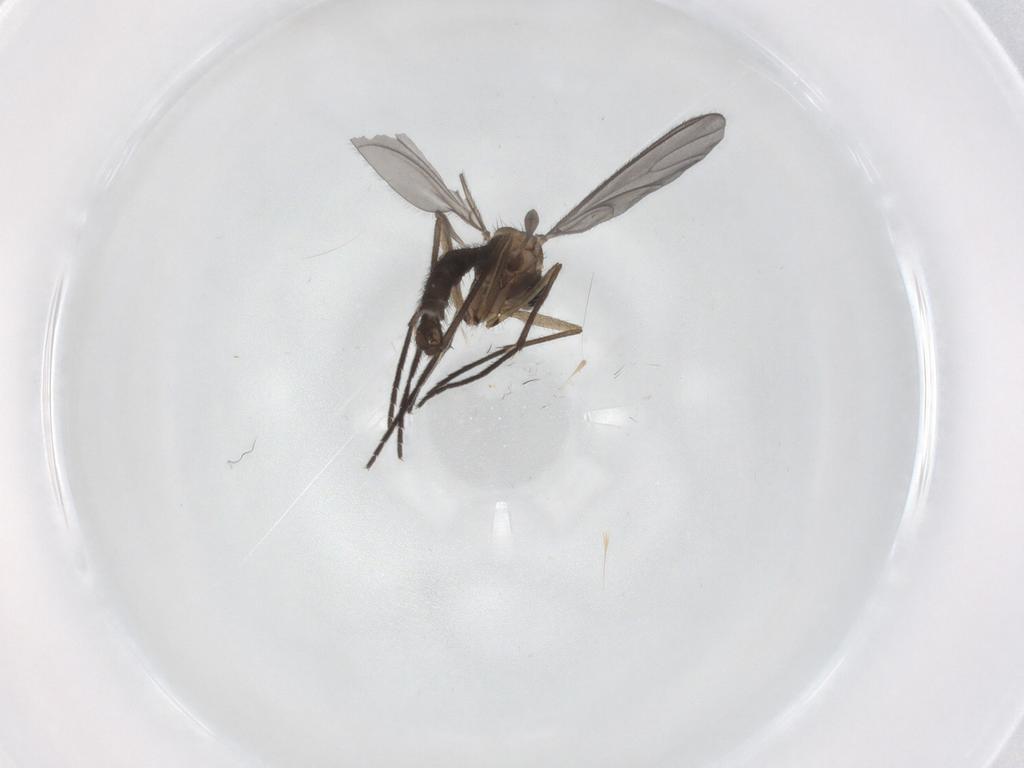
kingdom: Animalia
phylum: Arthropoda
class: Insecta
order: Diptera
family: Sciaridae
